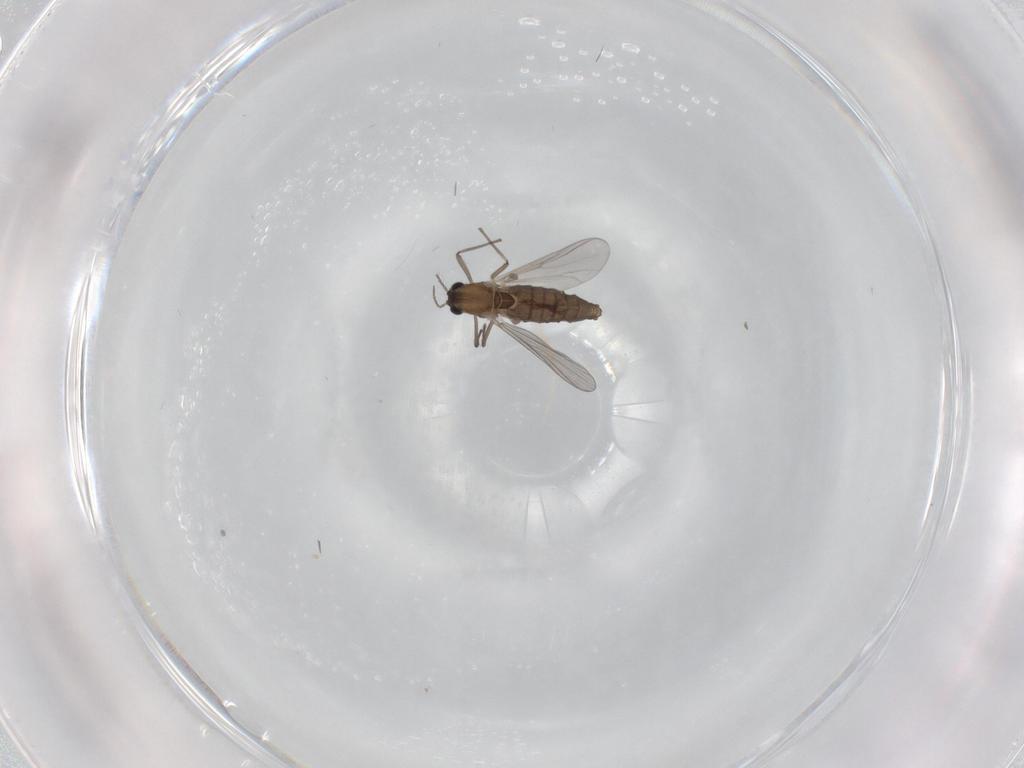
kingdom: Animalia
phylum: Arthropoda
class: Insecta
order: Diptera
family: Chironomidae
